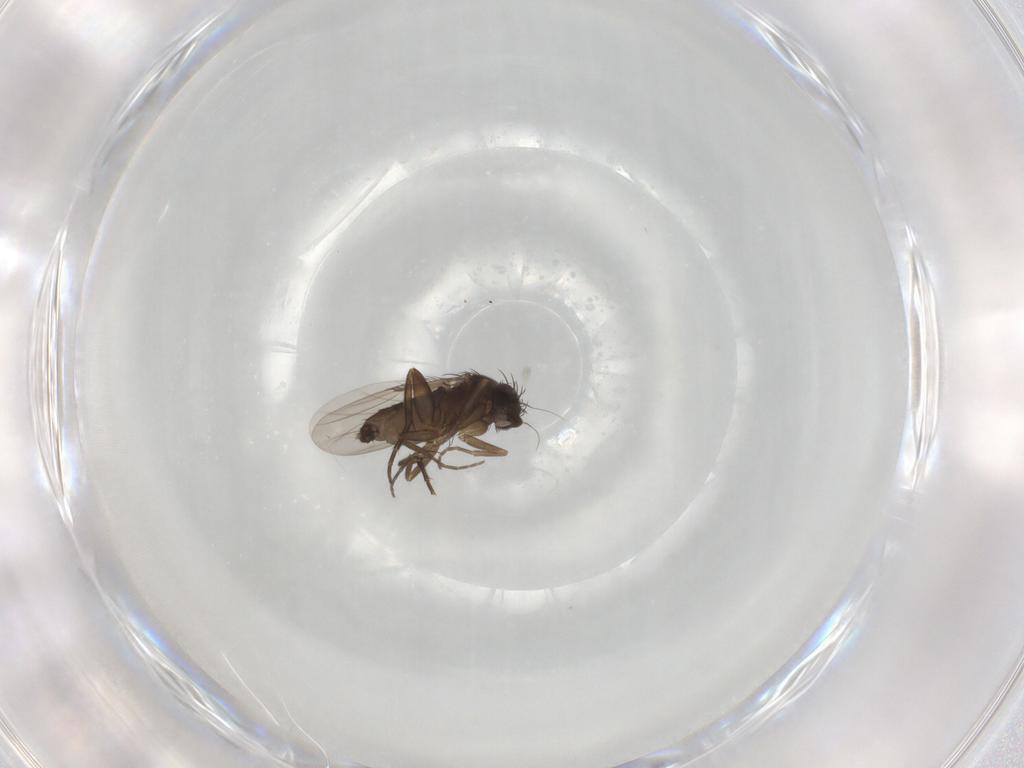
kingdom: Animalia
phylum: Arthropoda
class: Insecta
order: Diptera
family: Phoridae
